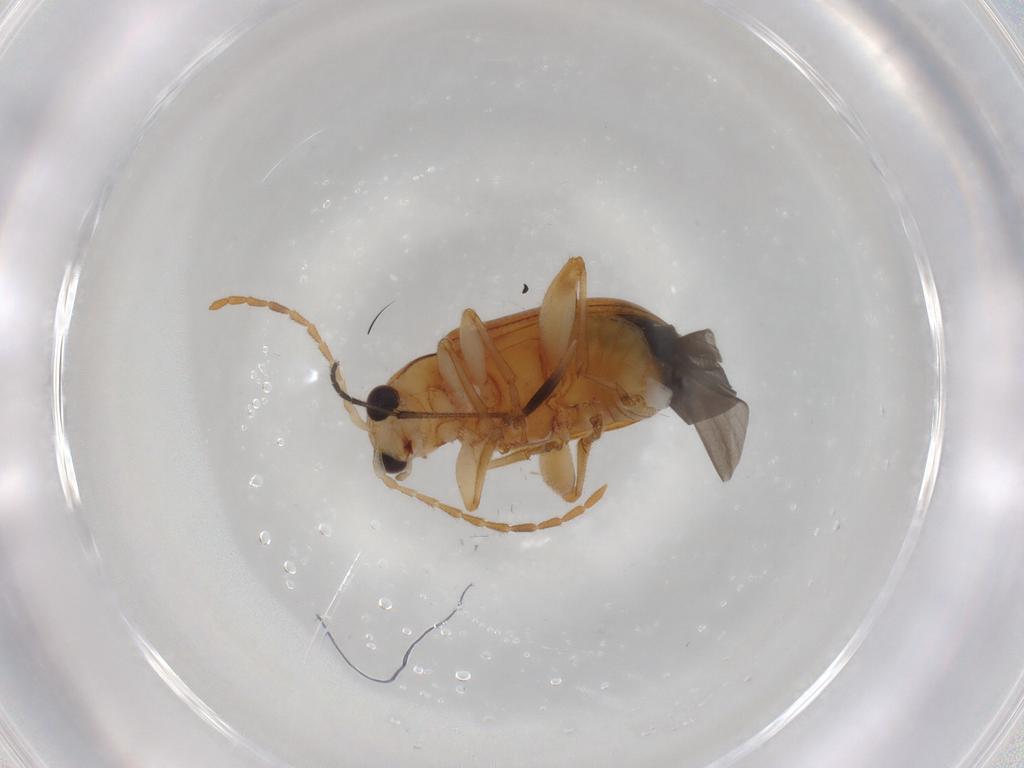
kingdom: Animalia
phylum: Arthropoda
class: Insecta
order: Coleoptera
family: Chrysomelidae
